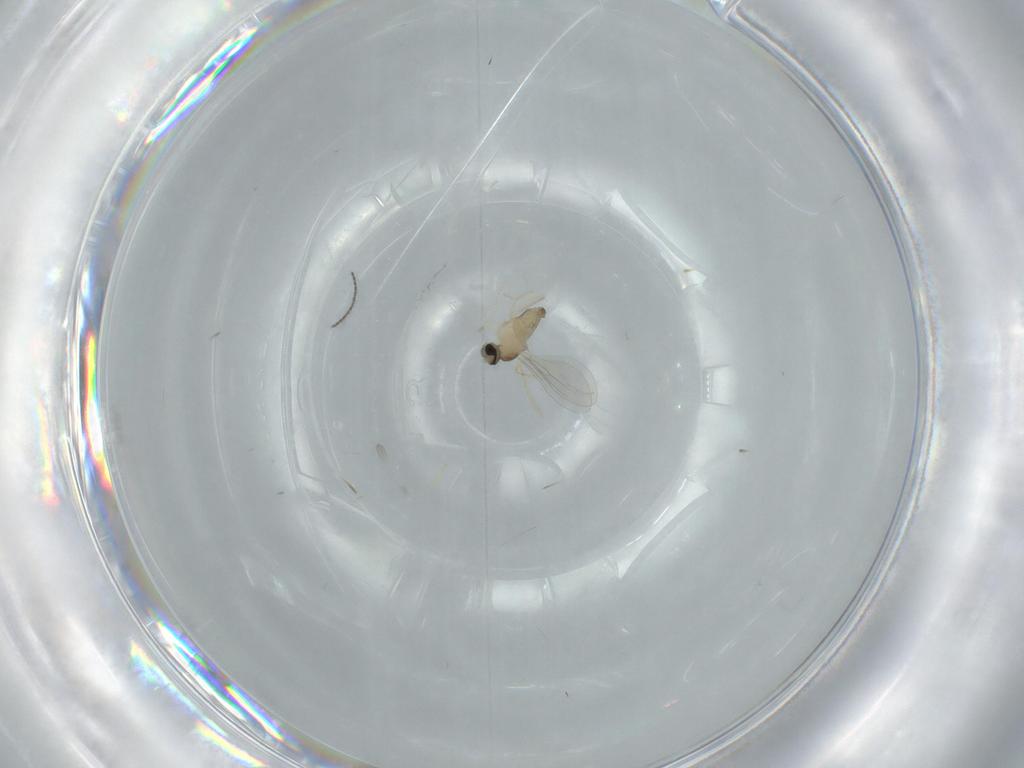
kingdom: Animalia
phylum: Arthropoda
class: Insecta
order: Diptera
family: Cecidomyiidae
